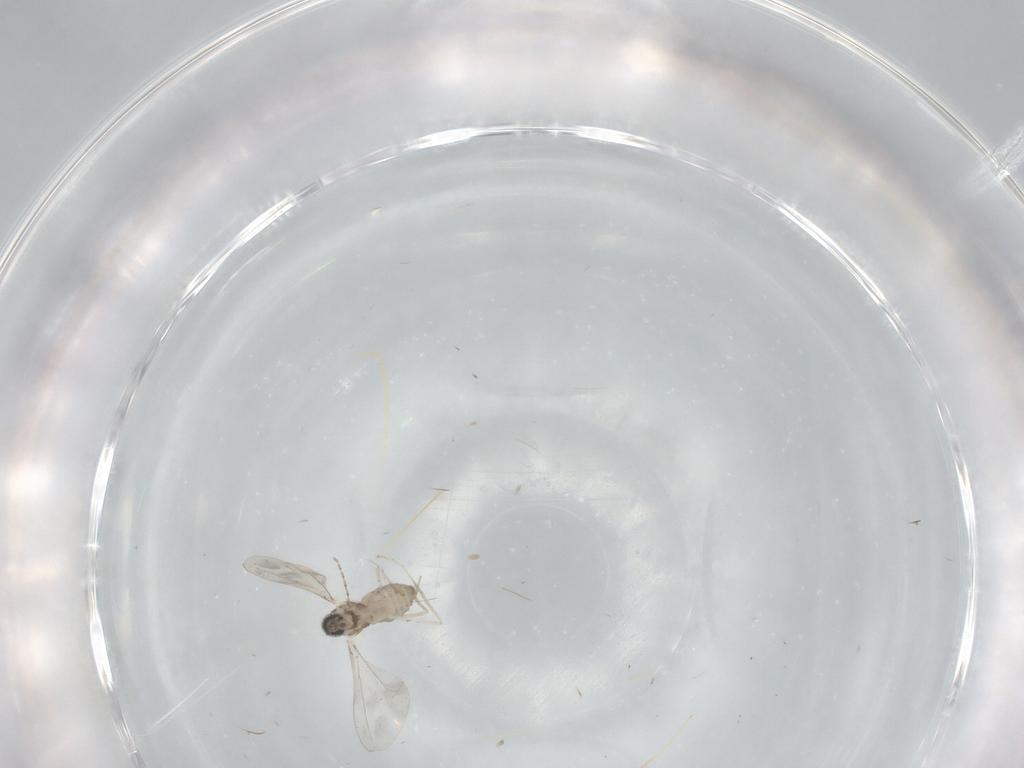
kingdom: Animalia
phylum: Arthropoda
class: Insecta
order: Diptera
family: Cecidomyiidae
